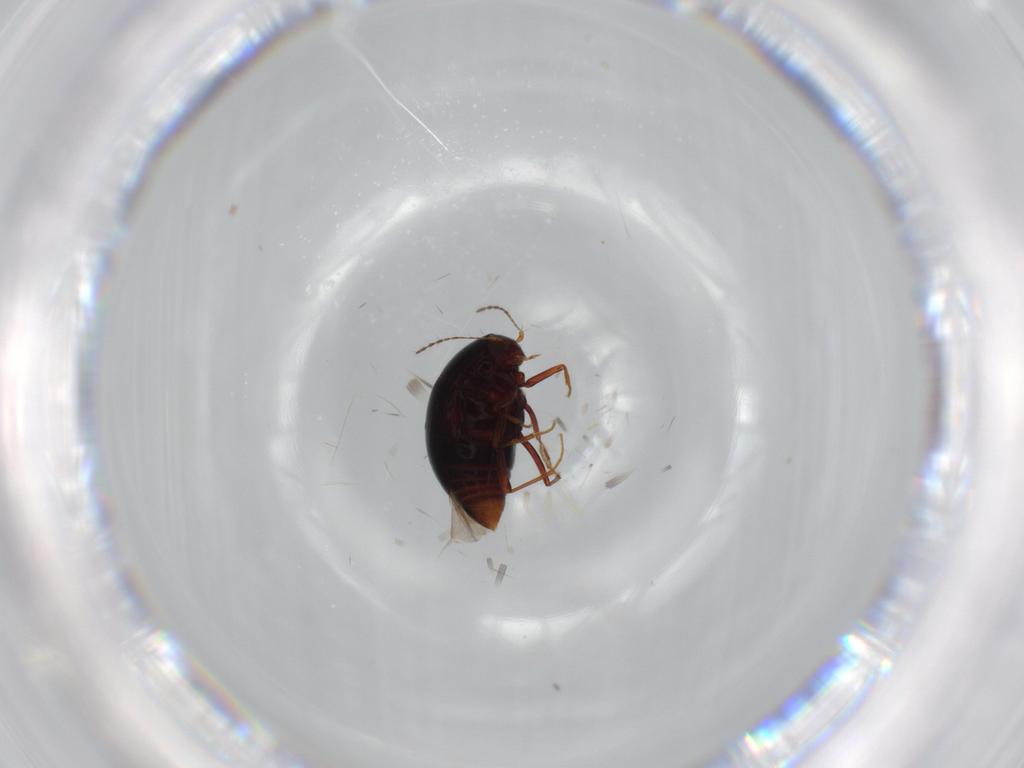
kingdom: Animalia
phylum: Arthropoda
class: Insecta
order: Coleoptera
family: Staphylinidae
